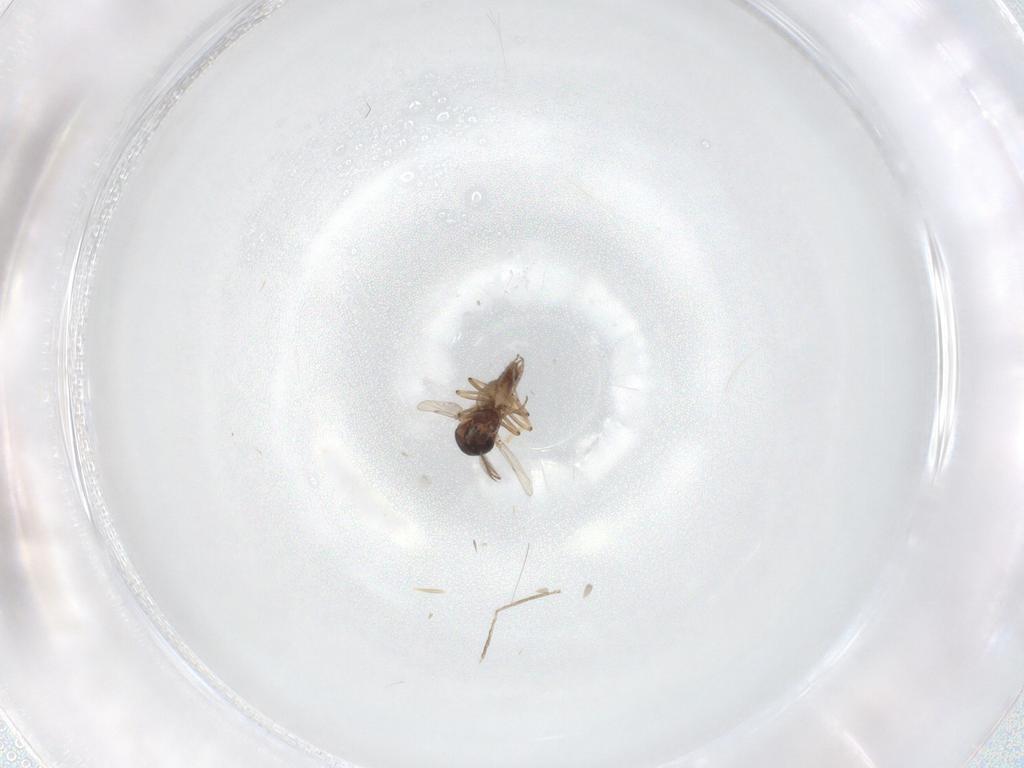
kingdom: Animalia
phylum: Arthropoda
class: Insecta
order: Diptera
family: Ceratopogonidae
